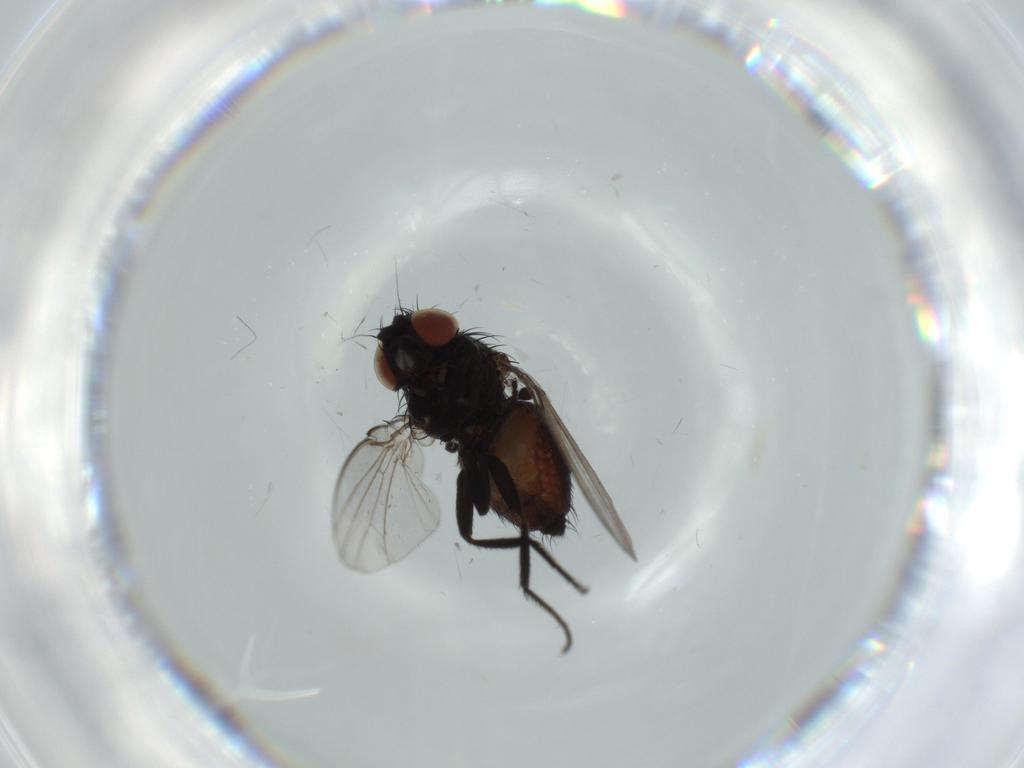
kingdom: Animalia
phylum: Arthropoda
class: Insecta
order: Diptera
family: Milichiidae
